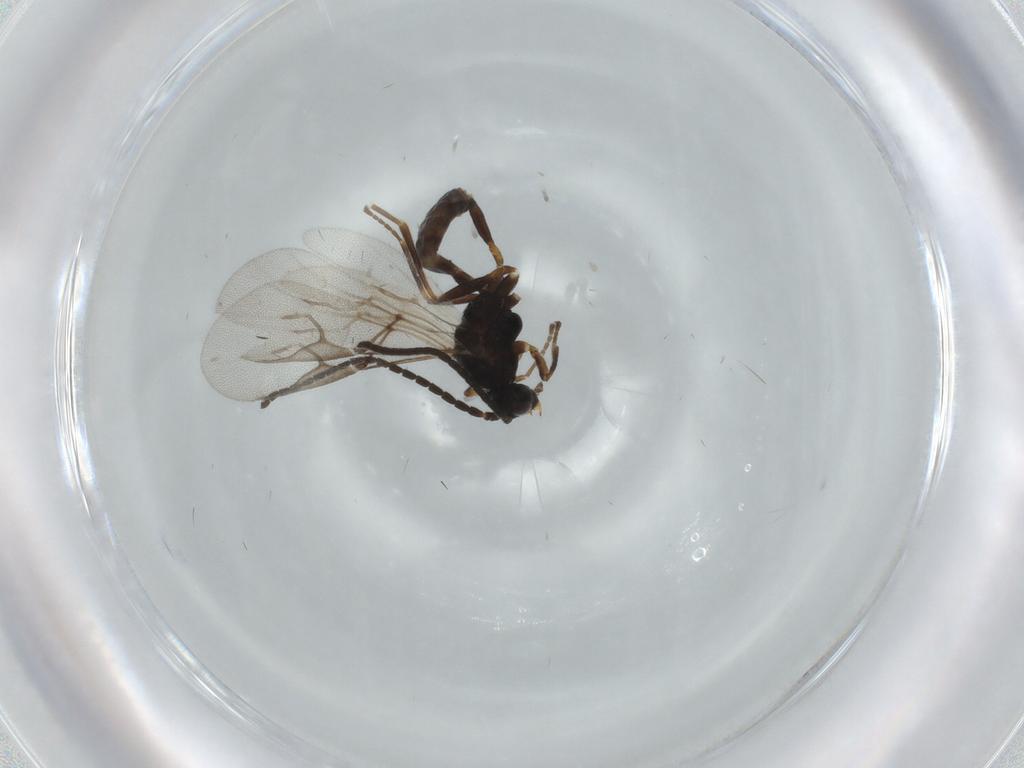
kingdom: Animalia
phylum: Arthropoda
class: Insecta
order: Hymenoptera
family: Braconidae
